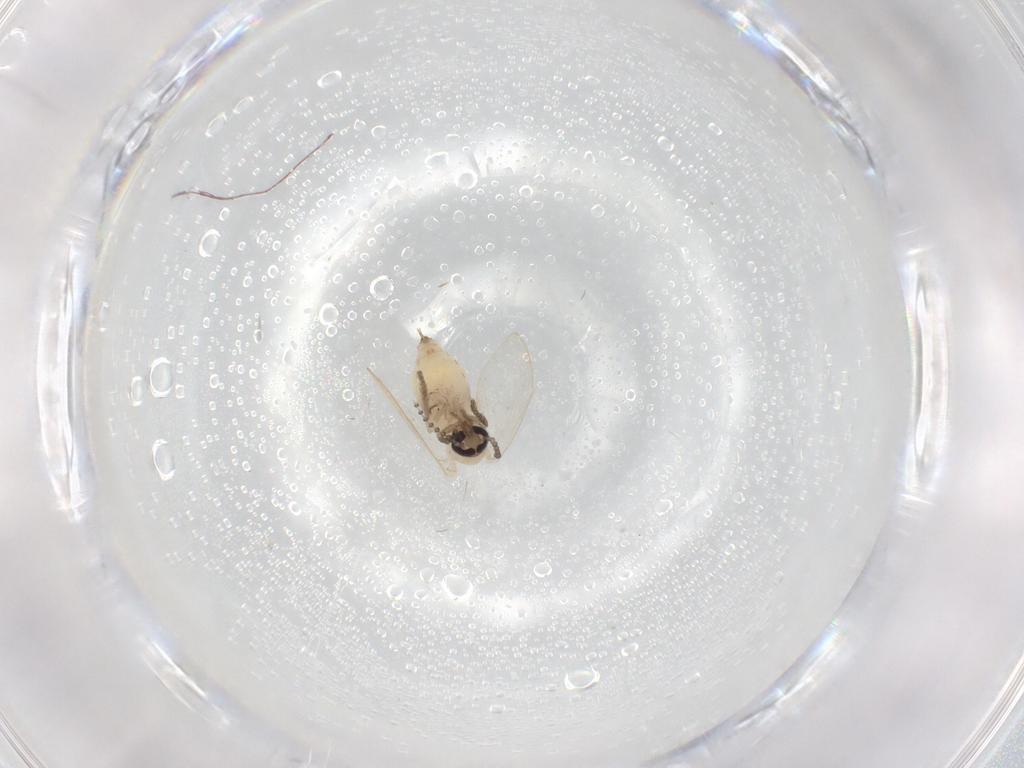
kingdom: Animalia
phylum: Arthropoda
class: Insecta
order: Diptera
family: Psychodidae
